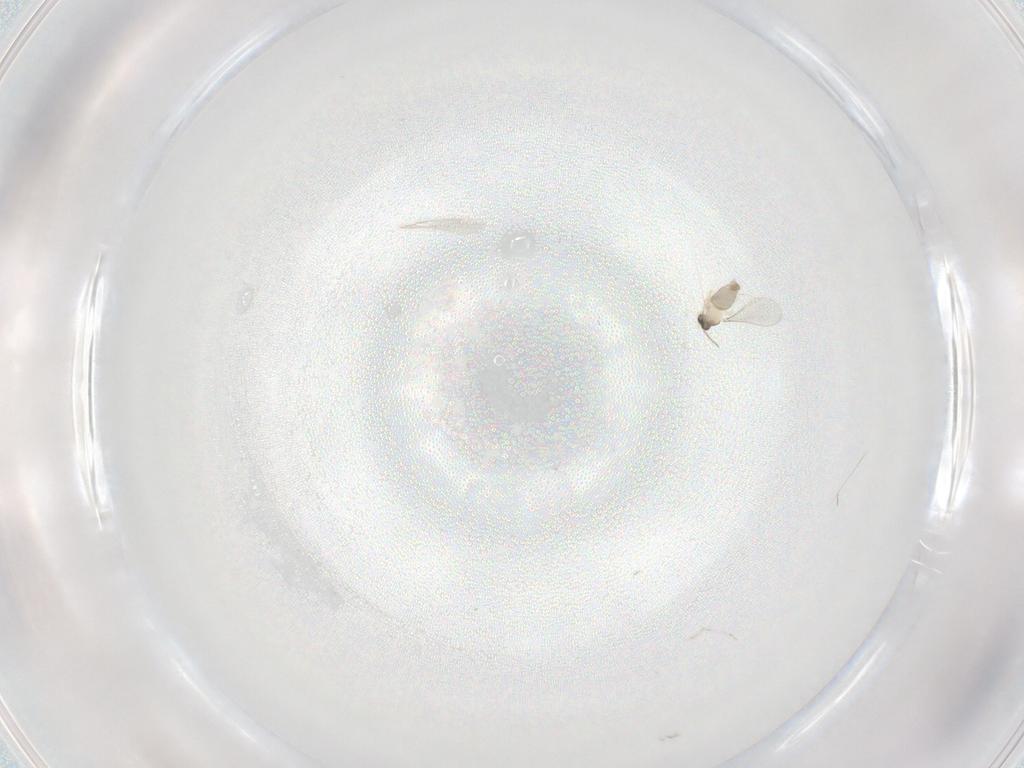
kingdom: Animalia
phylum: Arthropoda
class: Insecta
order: Diptera
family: Cecidomyiidae
